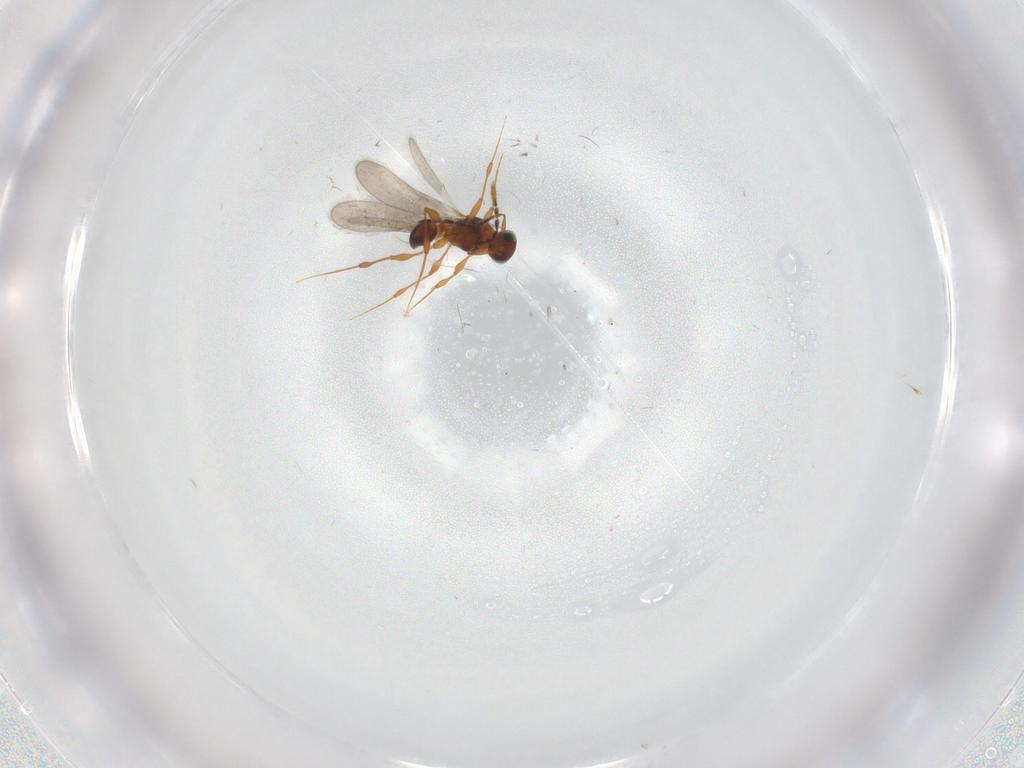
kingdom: Animalia
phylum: Arthropoda
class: Insecta
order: Hymenoptera
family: Platygastridae
